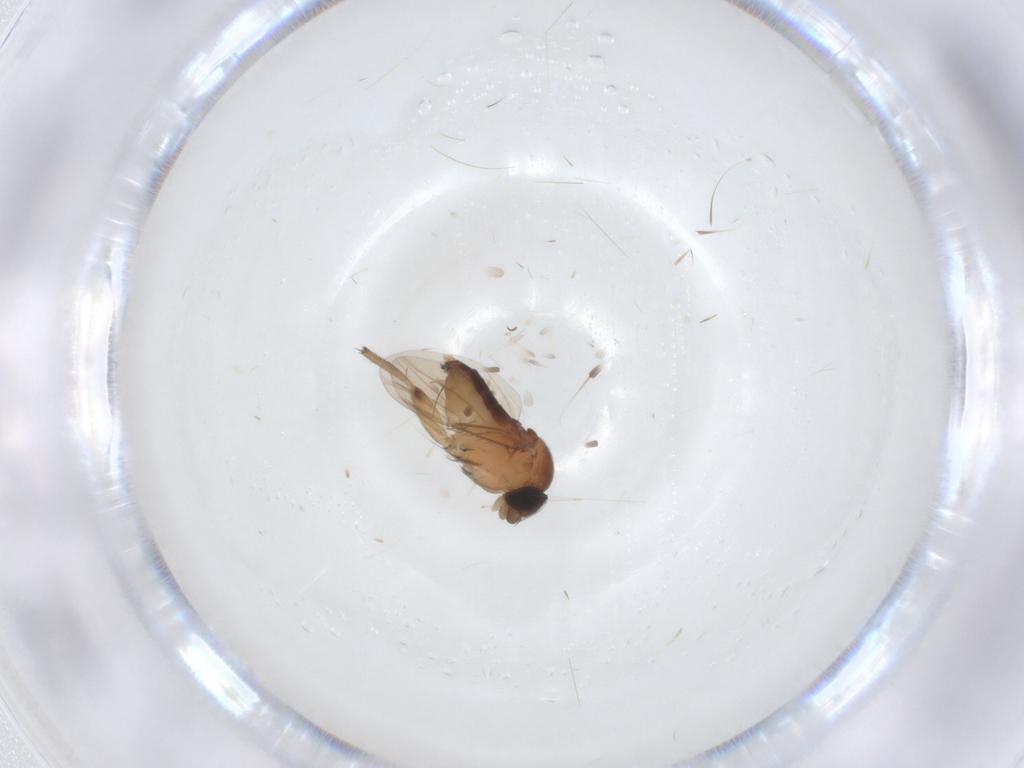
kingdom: Animalia
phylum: Arthropoda
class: Insecta
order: Diptera
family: Phoridae
